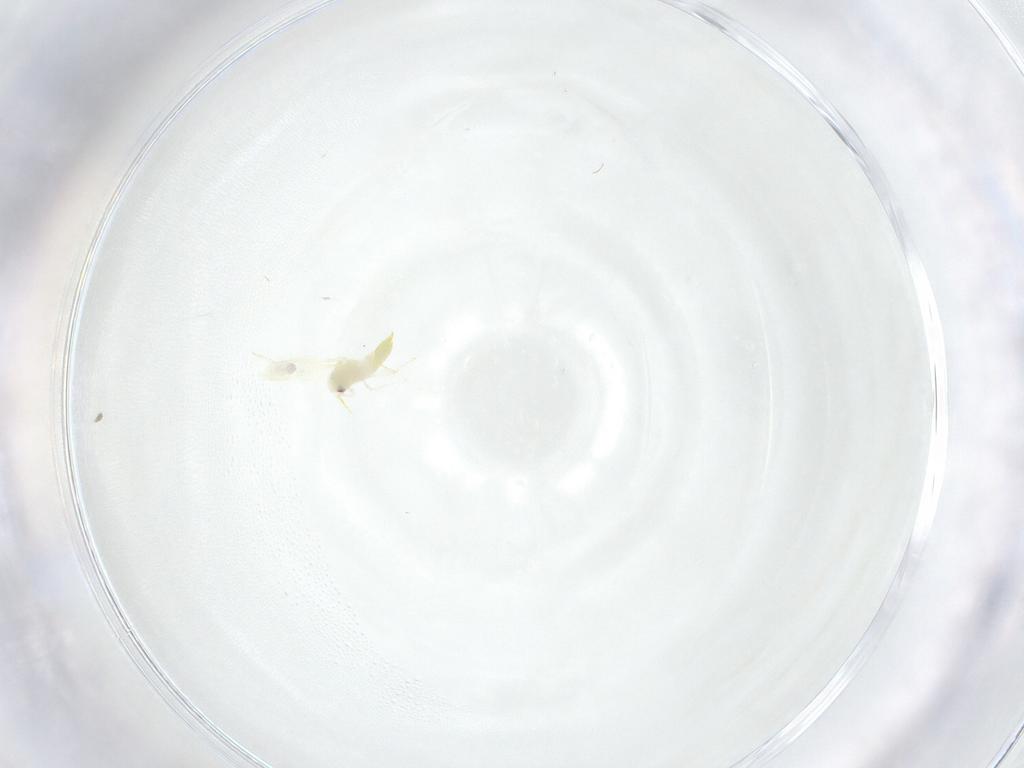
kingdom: Animalia
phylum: Arthropoda
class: Insecta
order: Hemiptera
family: Aleyrodidae
